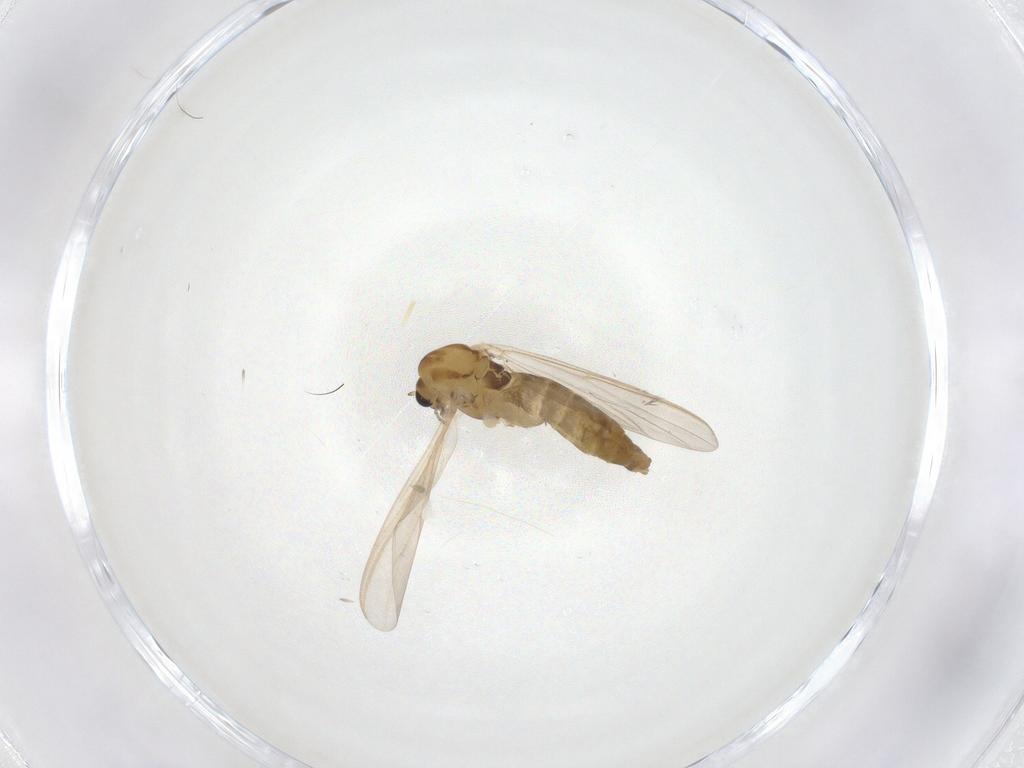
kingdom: Animalia
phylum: Arthropoda
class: Insecta
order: Diptera
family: Chironomidae
